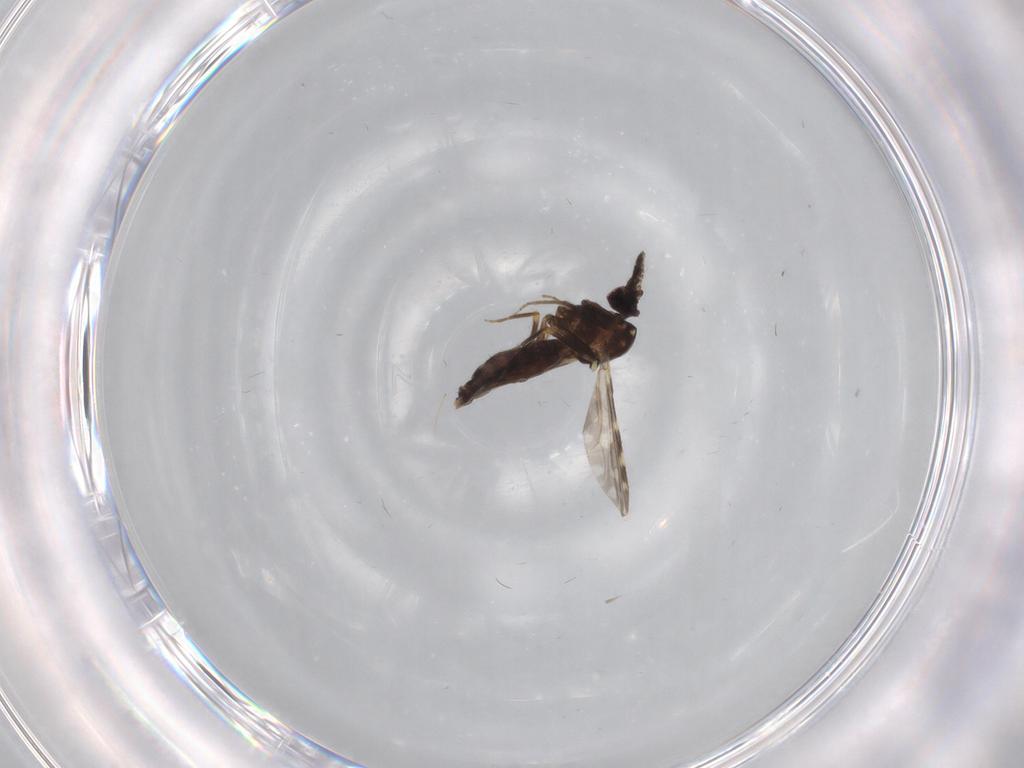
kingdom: Animalia
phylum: Arthropoda
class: Insecta
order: Diptera
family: Ceratopogonidae
